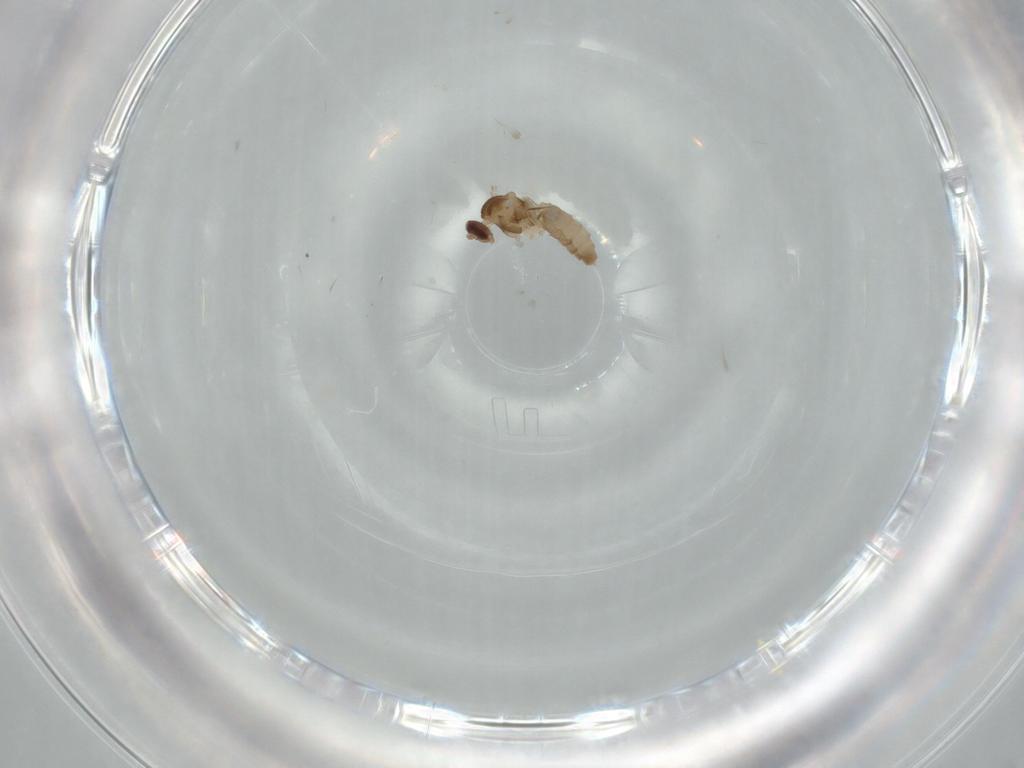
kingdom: Animalia
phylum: Arthropoda
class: Insecta
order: Diptera
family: Cecidomyiidae
